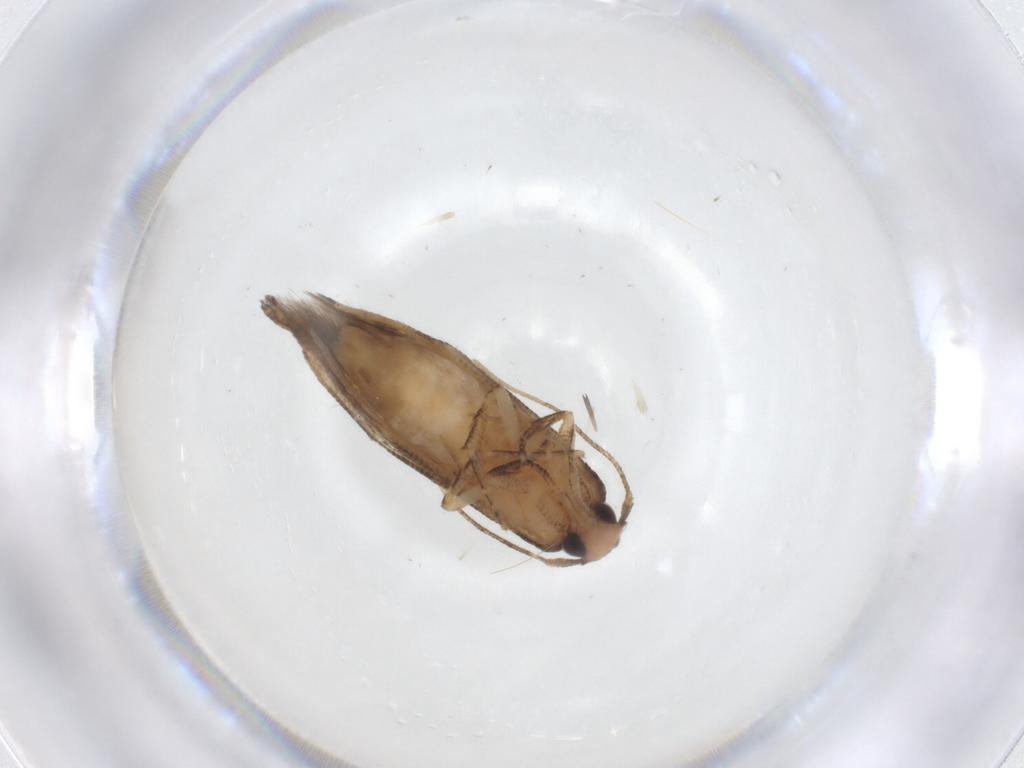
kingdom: Animalia
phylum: Arthropoda
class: Insecta
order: Lepidoptera
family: Cosmopterigidae
